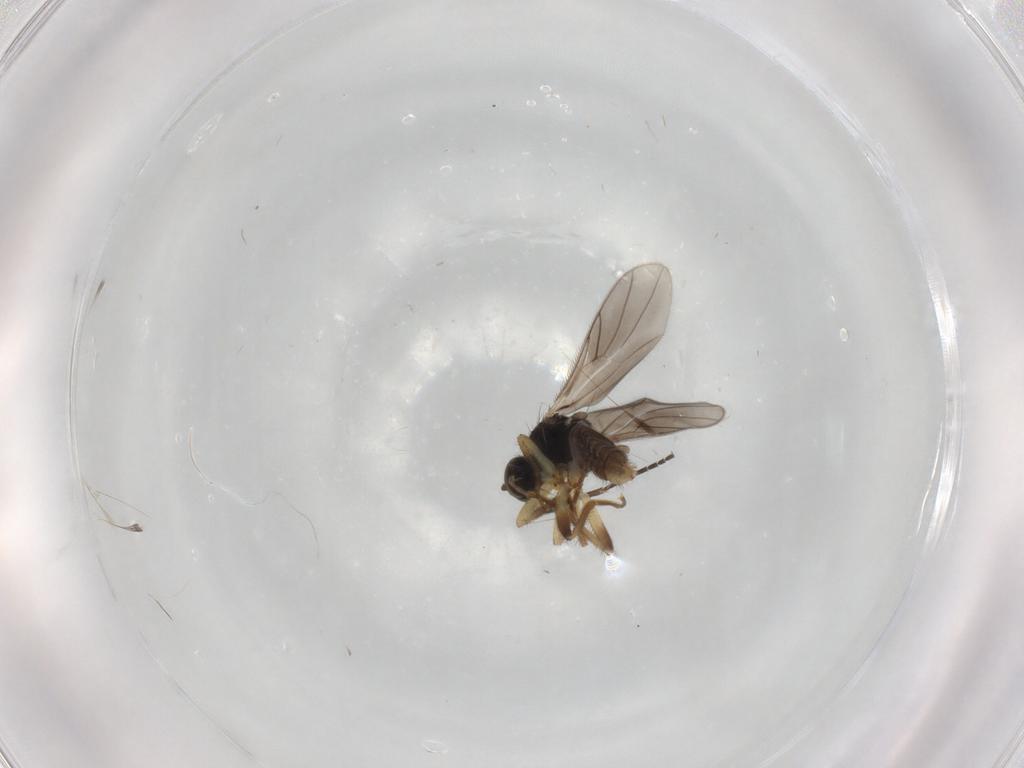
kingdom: Animalia
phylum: Arthropoda
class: Insecta
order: Diptera
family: Hybotidae
